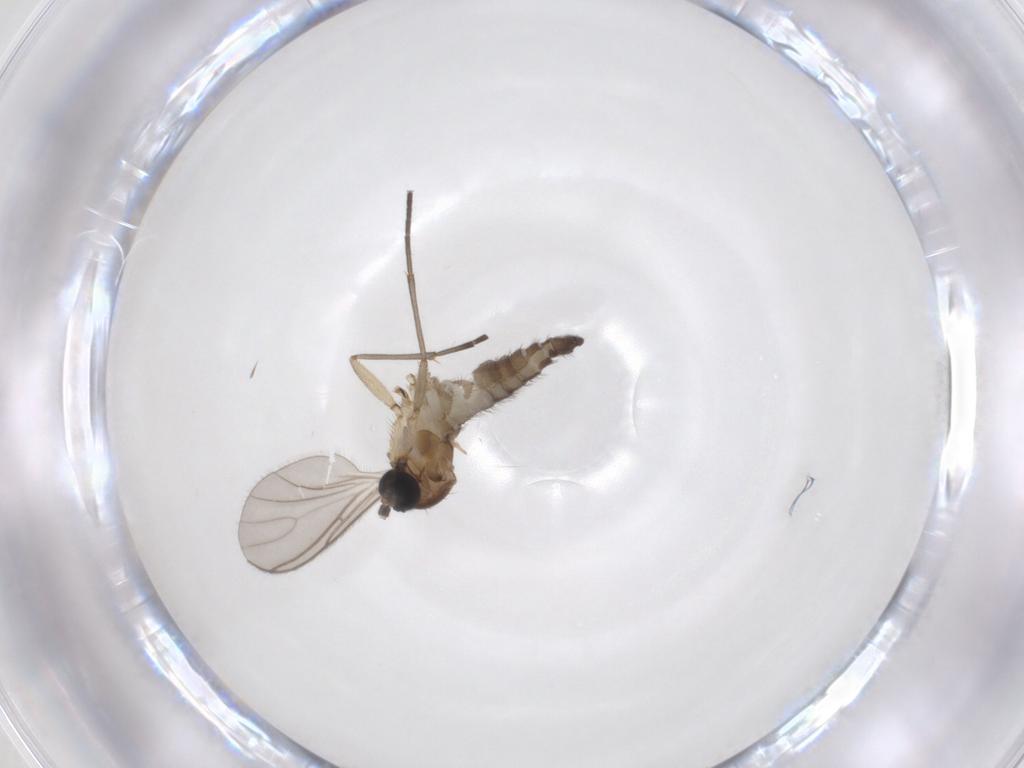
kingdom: Animalia
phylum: Arthropoda
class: Insecta
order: Diptera
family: Sciaridae
